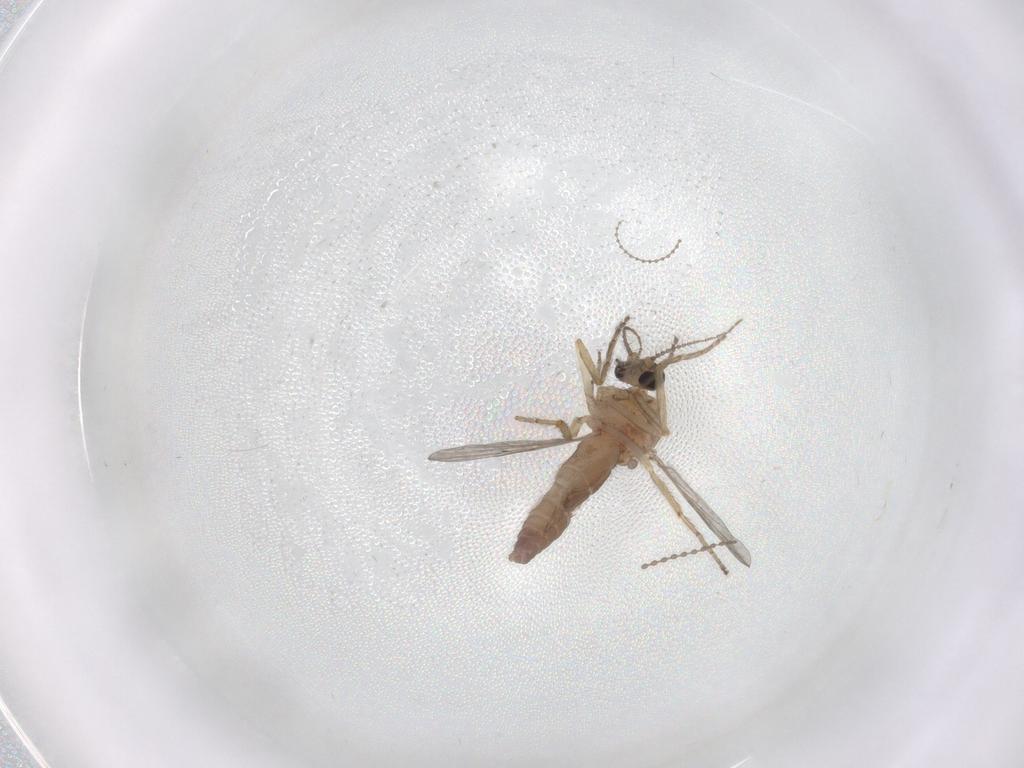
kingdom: Animalia
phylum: Arthropoda
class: Insecta
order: Diptera
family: Ceratopogonidae
